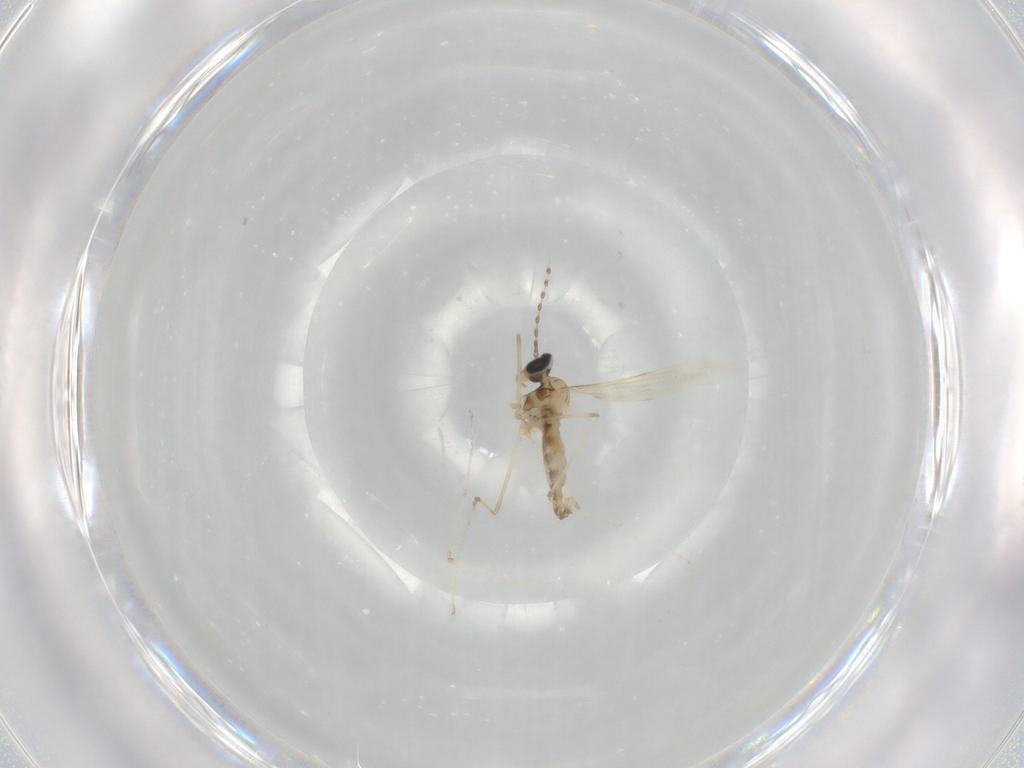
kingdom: Animalia
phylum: Arthropoda
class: Insecta
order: Diptera
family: Cecidomyiidae
